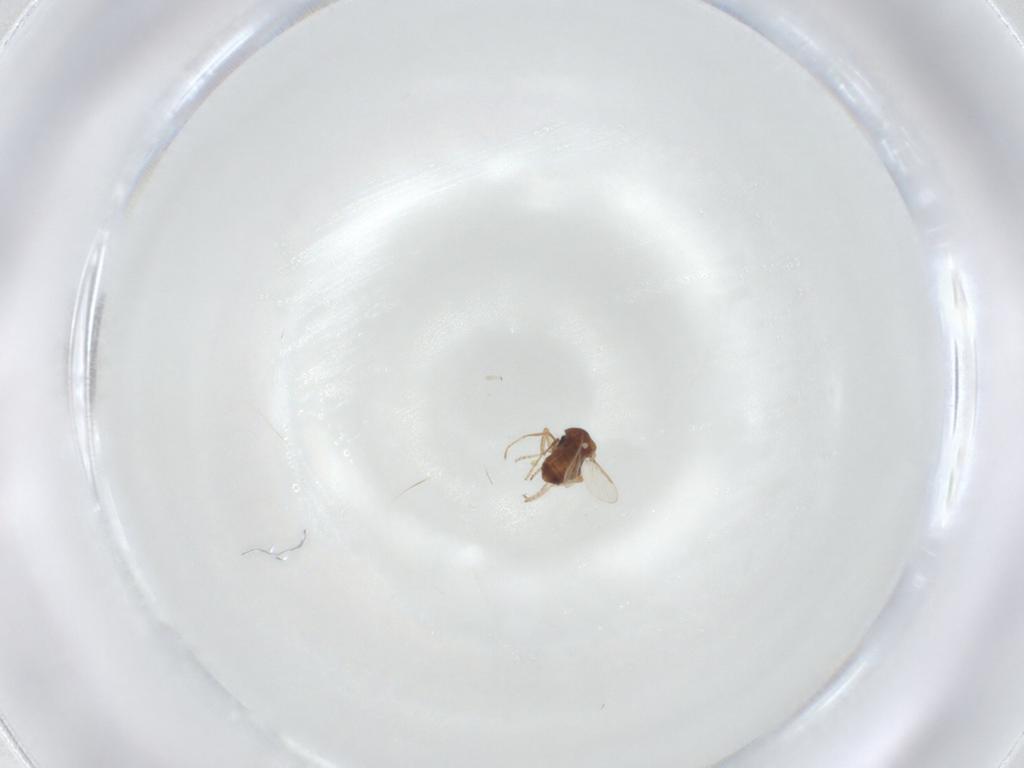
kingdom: Animalia
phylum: Arthropoda
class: Insecta
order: Diptera
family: Ceratopogonidae
